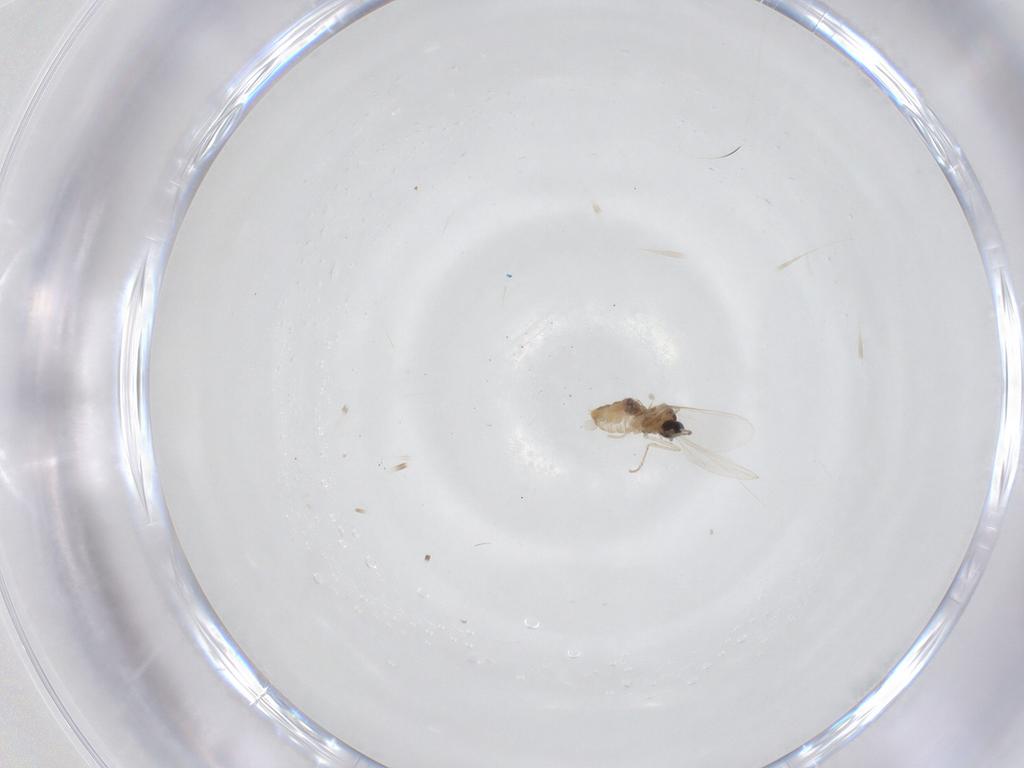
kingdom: Animalia
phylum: Arthropoda
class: Insecta
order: Diptera
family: Cecidomyiidae
